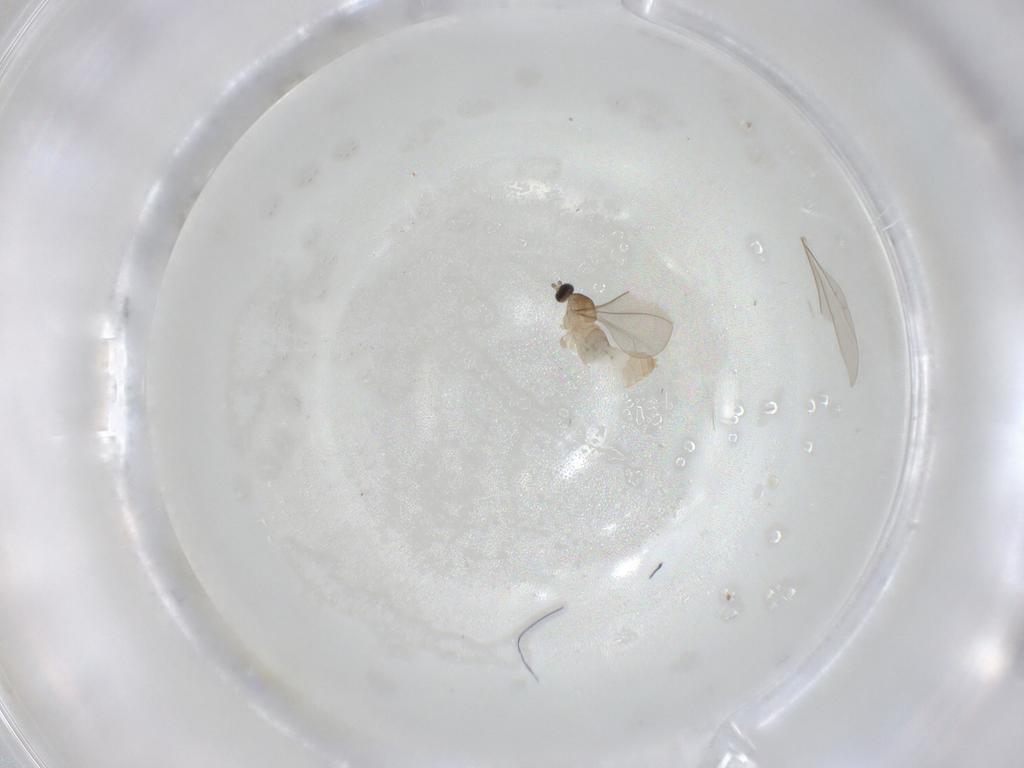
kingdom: Animalia
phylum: Arthropoda
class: Insecta
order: Diptera
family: Cecidomyiidae
